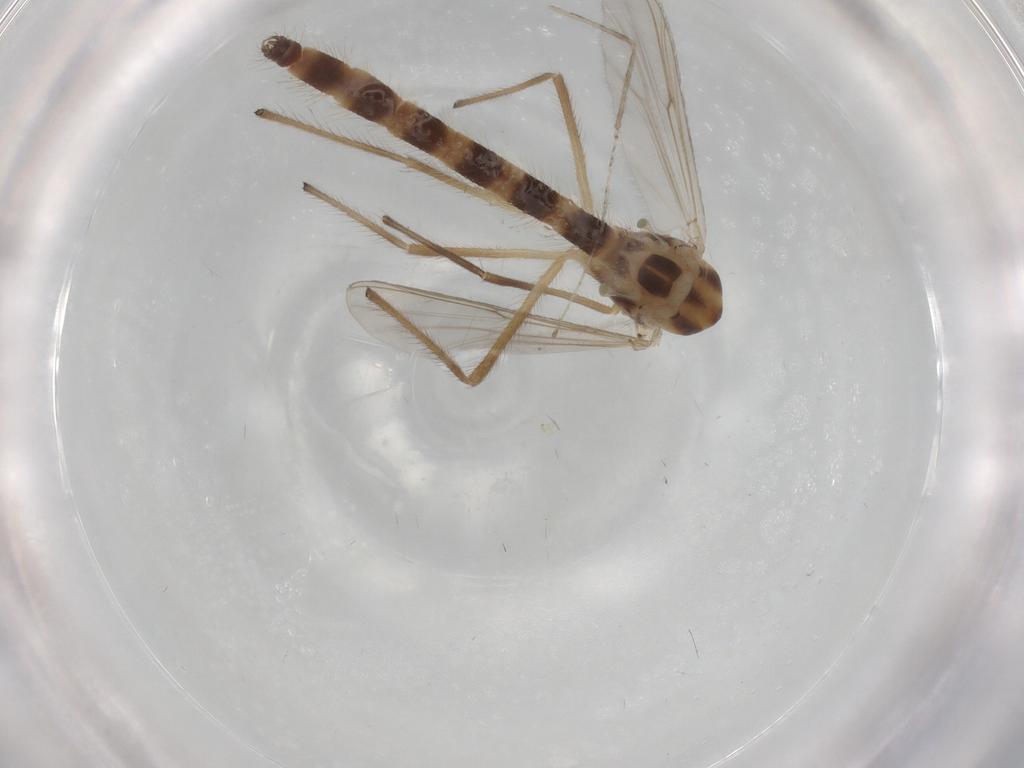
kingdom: Animalia
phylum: Arthropoda
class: Insecta
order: Diptera
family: Chironomidae
